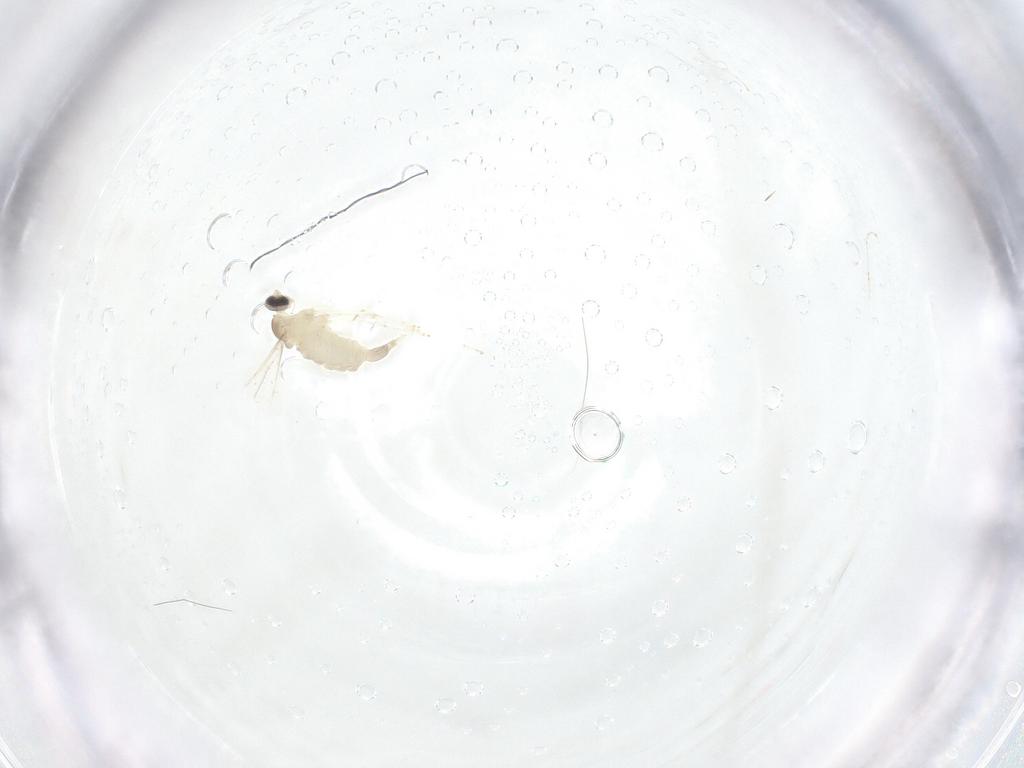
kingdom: Animalia
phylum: Arthropoda
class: Insecta
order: Diptera
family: Cecidomyiidae
